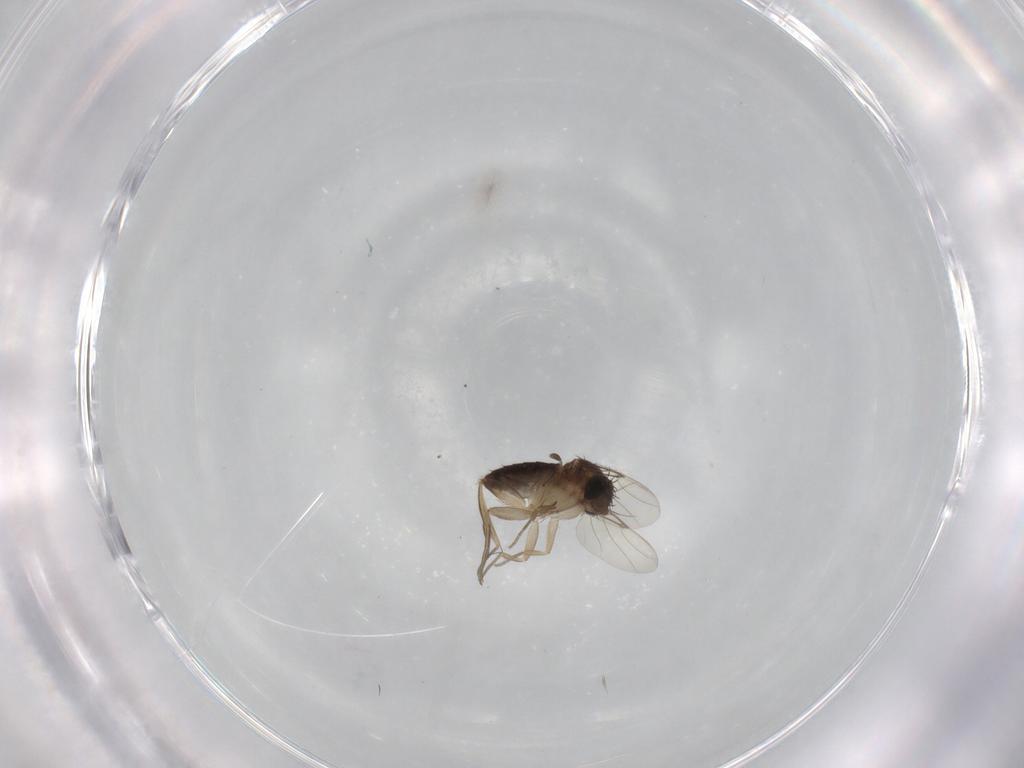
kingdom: Animalia
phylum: Arthropoda
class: Insecta
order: Diptera
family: Phoridae
